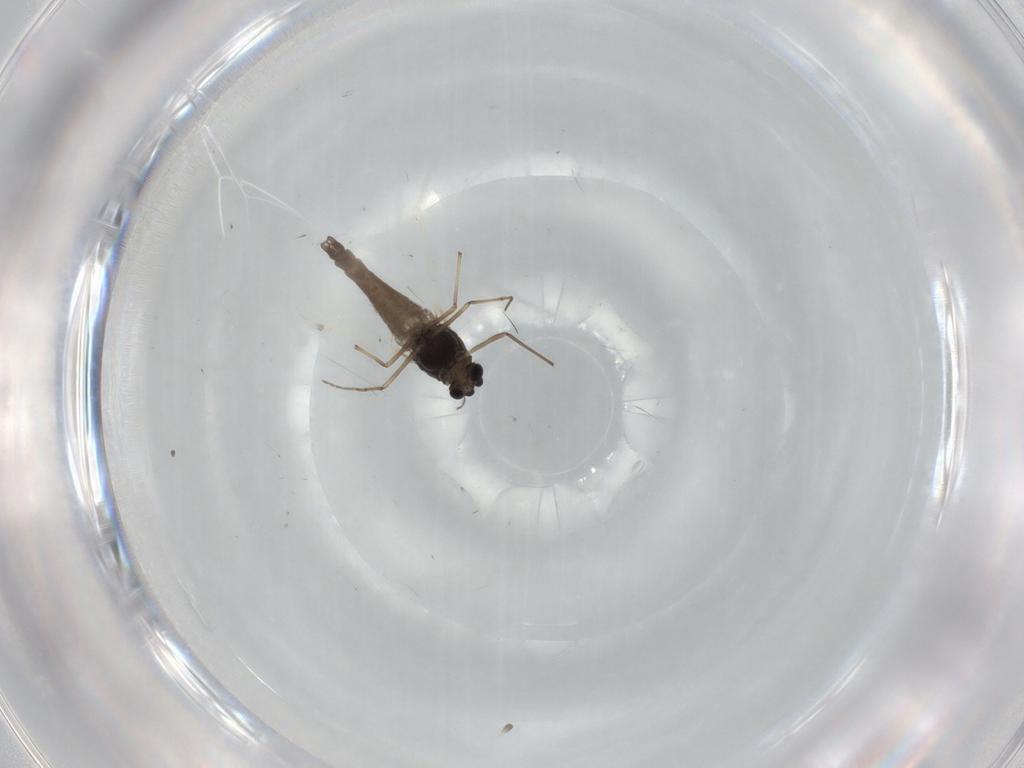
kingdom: Animalia
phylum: Arthropoda
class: Insecta
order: Diptera
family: Chironomidae
